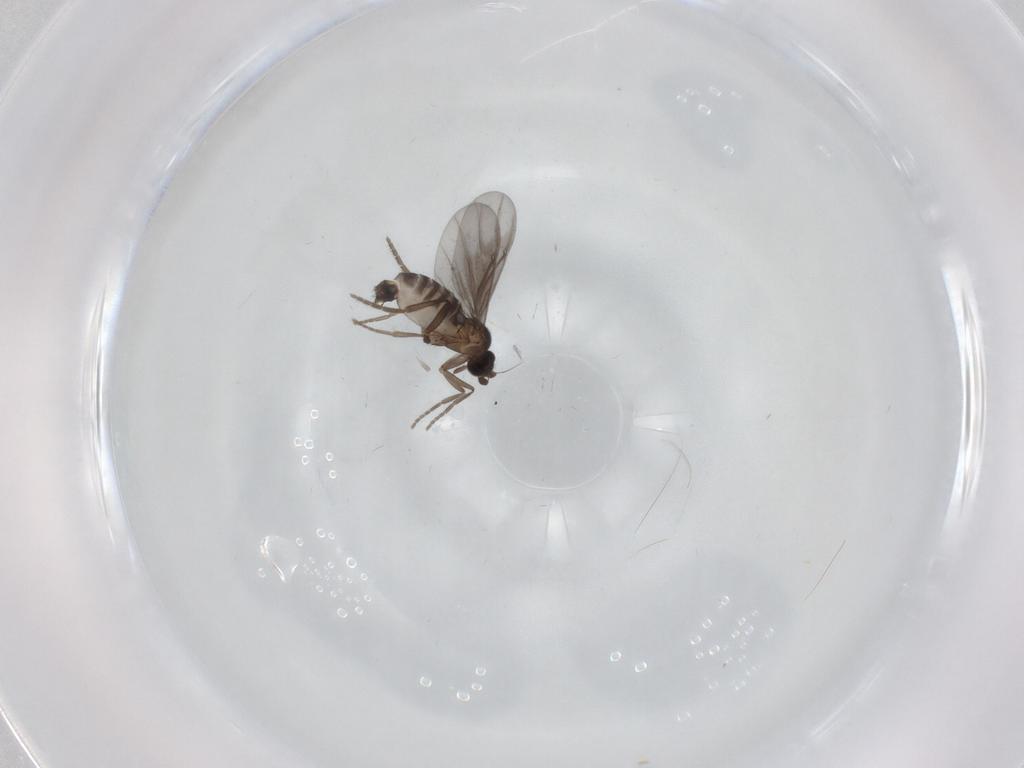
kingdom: Animalia
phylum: Arthropoda
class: Insecta
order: Diptera
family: Phoridae
